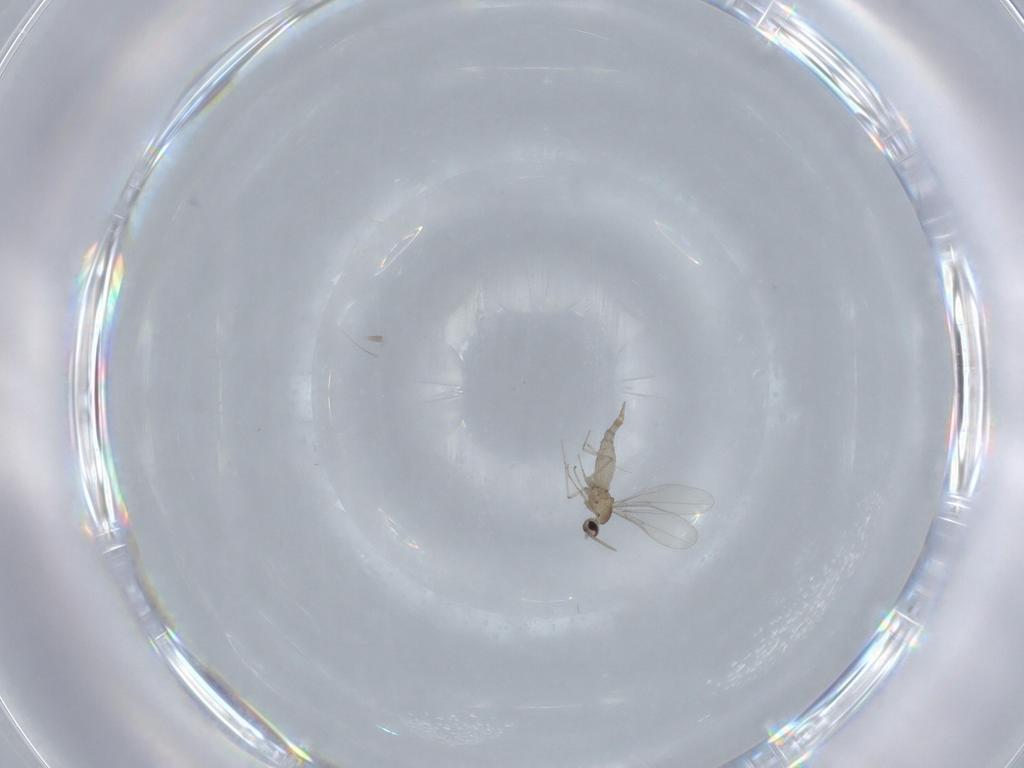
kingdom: Animalia
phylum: Arthropoda
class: Insecta
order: Diptera
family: Cecidomyiidae
